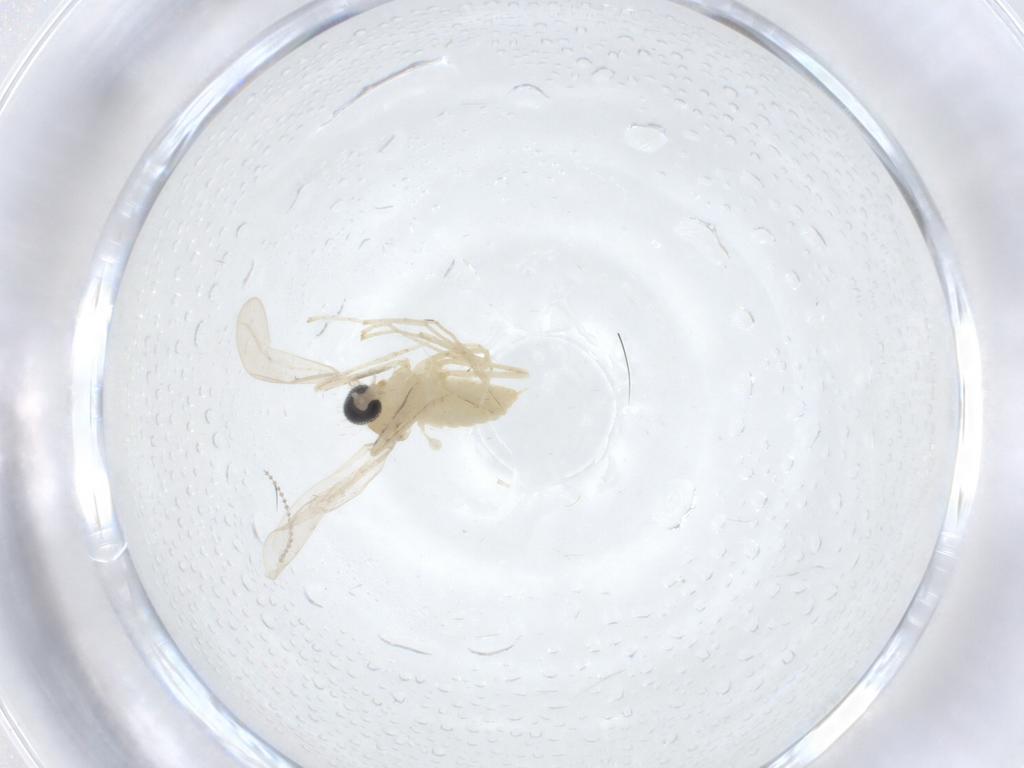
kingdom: Animalia
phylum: Arthropoda
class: Insecta
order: Diptera
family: Cecidomyiidae
